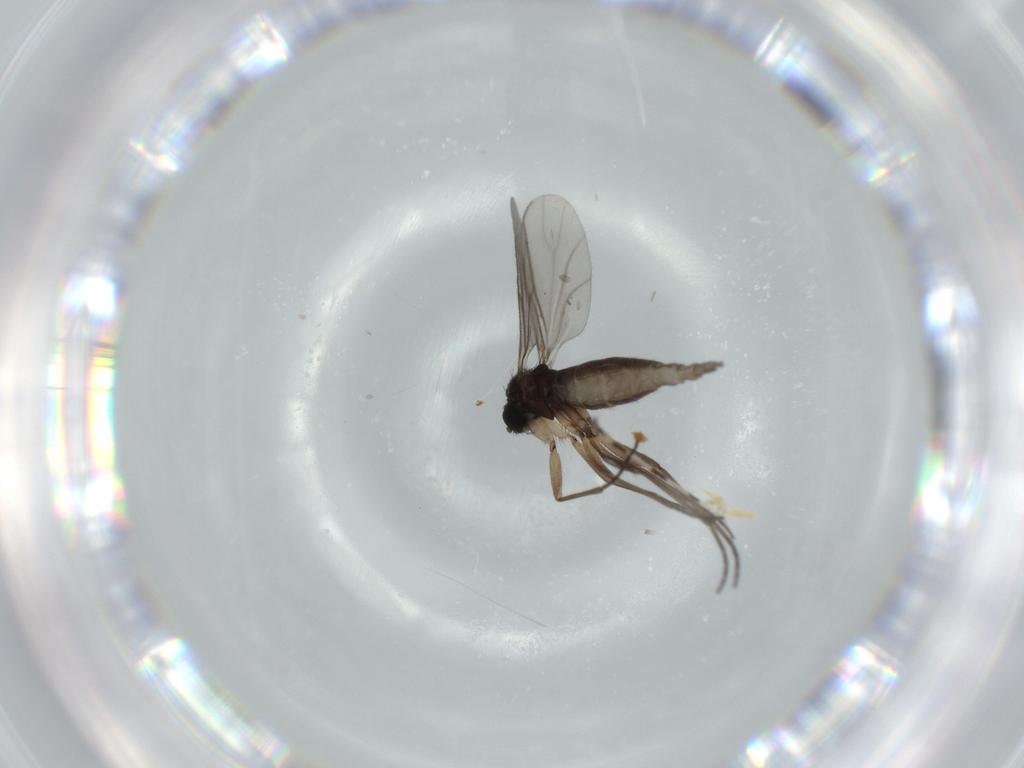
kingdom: Animalia
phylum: Arthropoda
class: Insecta
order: Diptera
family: Sciaridae
